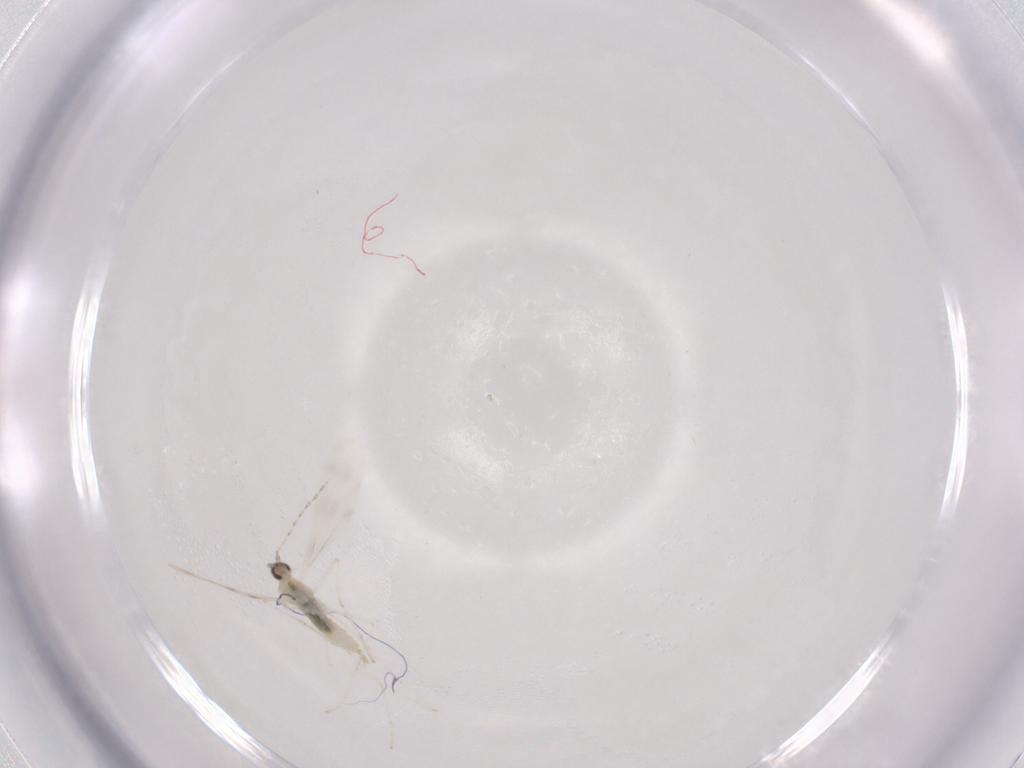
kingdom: Animalia
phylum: Arthropoda
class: Insecta
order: Diptera
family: Cecidomyiidae
